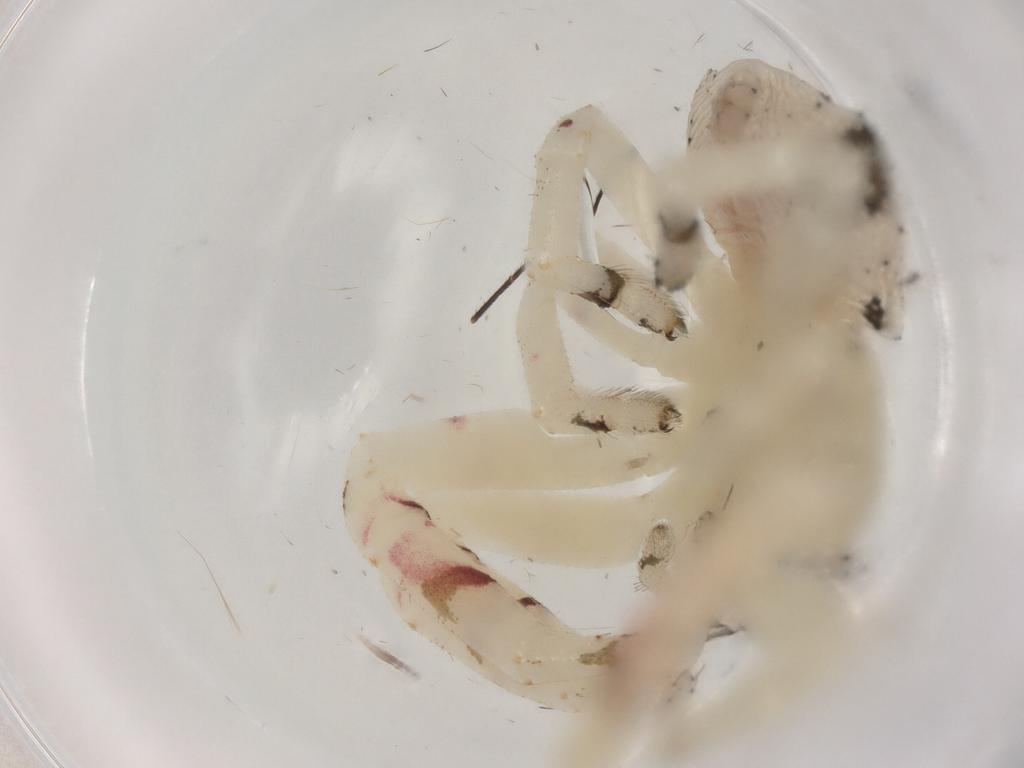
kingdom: Animalia
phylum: Arthropoda
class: Arachnida
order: Araneae
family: Thomisidae
